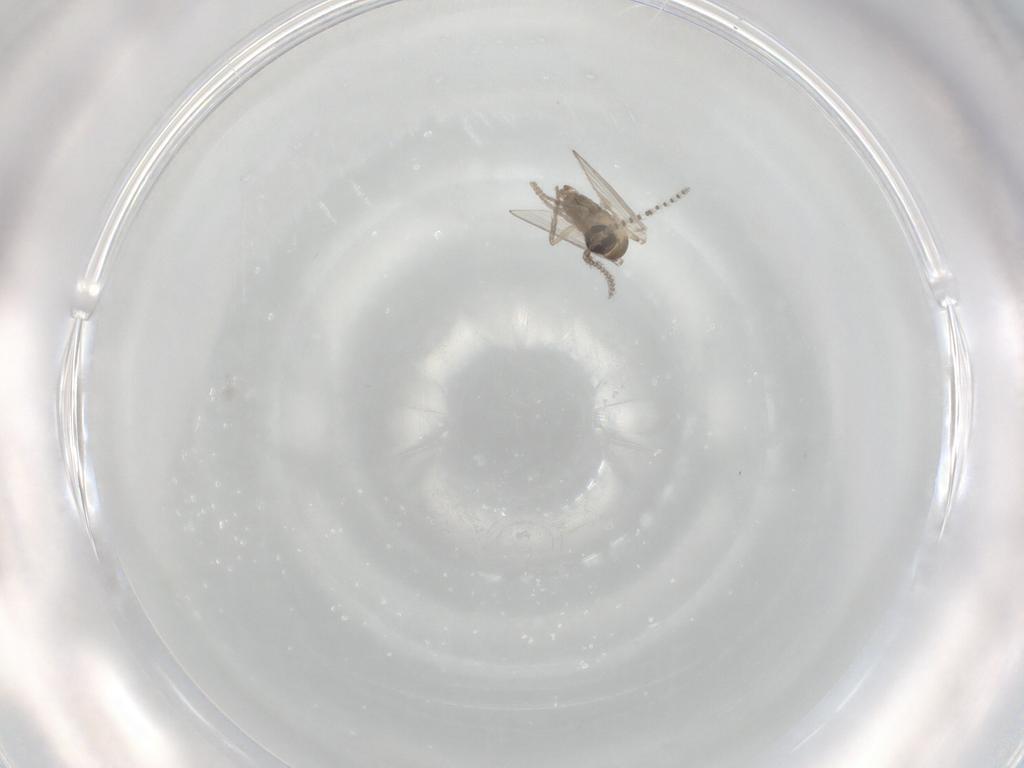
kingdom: Animalia
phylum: Arthropoda
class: Insecta
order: Diptera
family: Psychodidae
